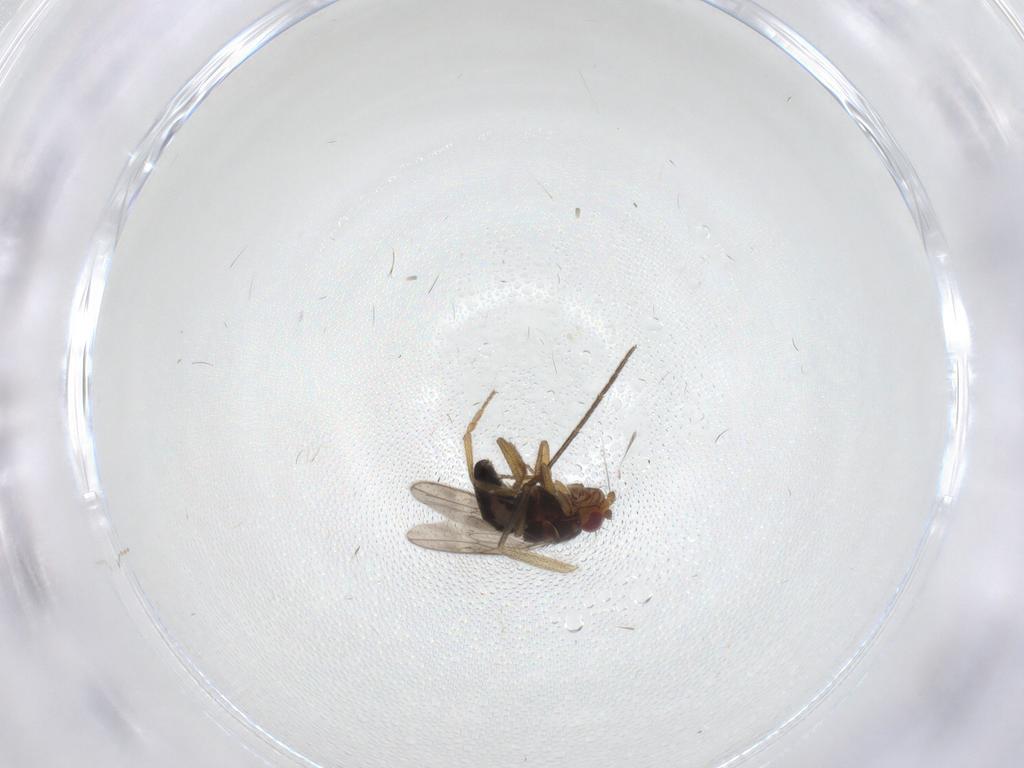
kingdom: Animalia
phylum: Arthropoda
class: Insecta
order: Diptera
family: Sphaeroceridae
